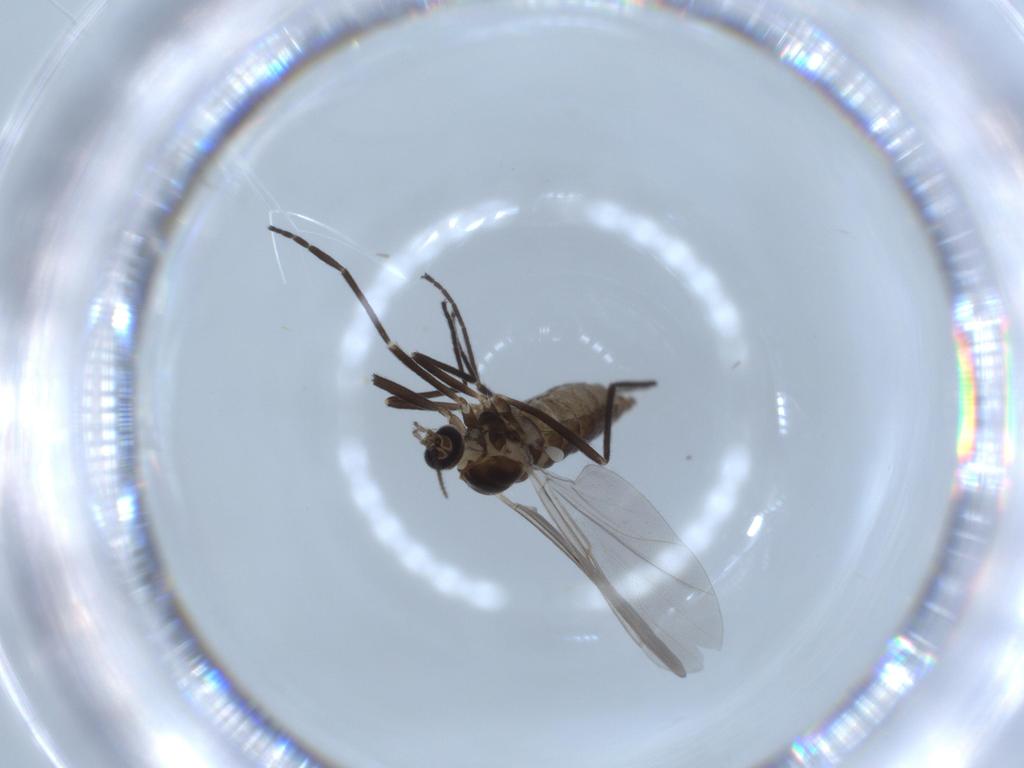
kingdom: Animalia
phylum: Arthropoda
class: Insecta
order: Diptera
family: Cecidomyiidae
